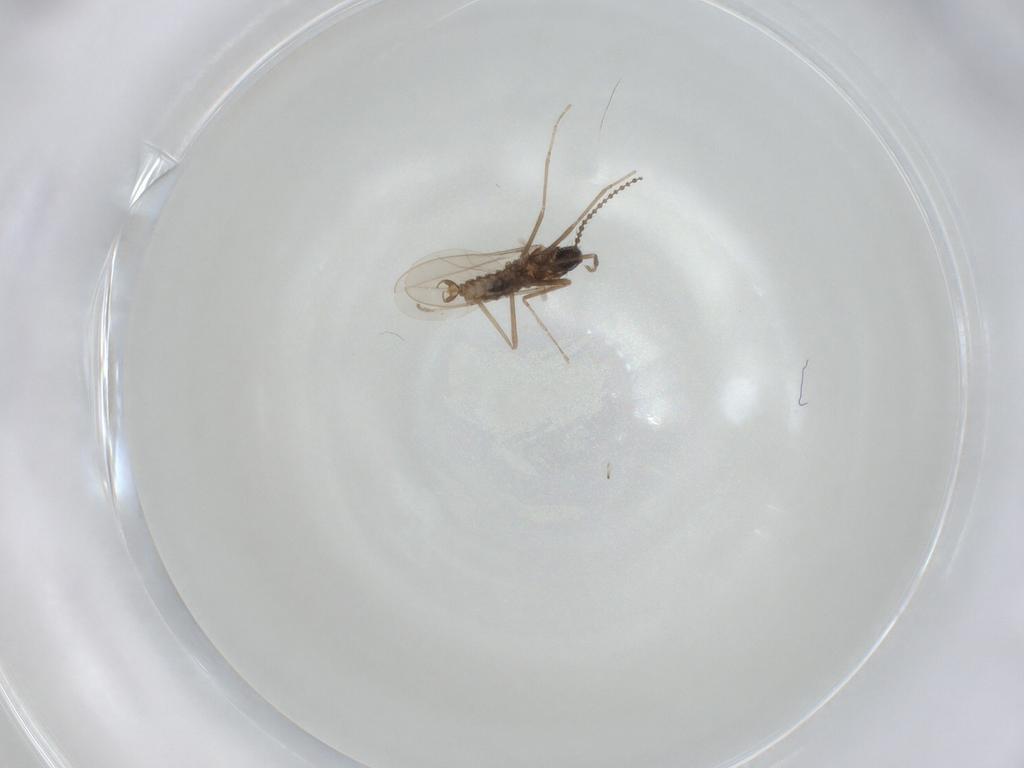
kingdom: Animalia
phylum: Arthropoda
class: Insecta
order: Diptera
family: Cecidomyiidae
